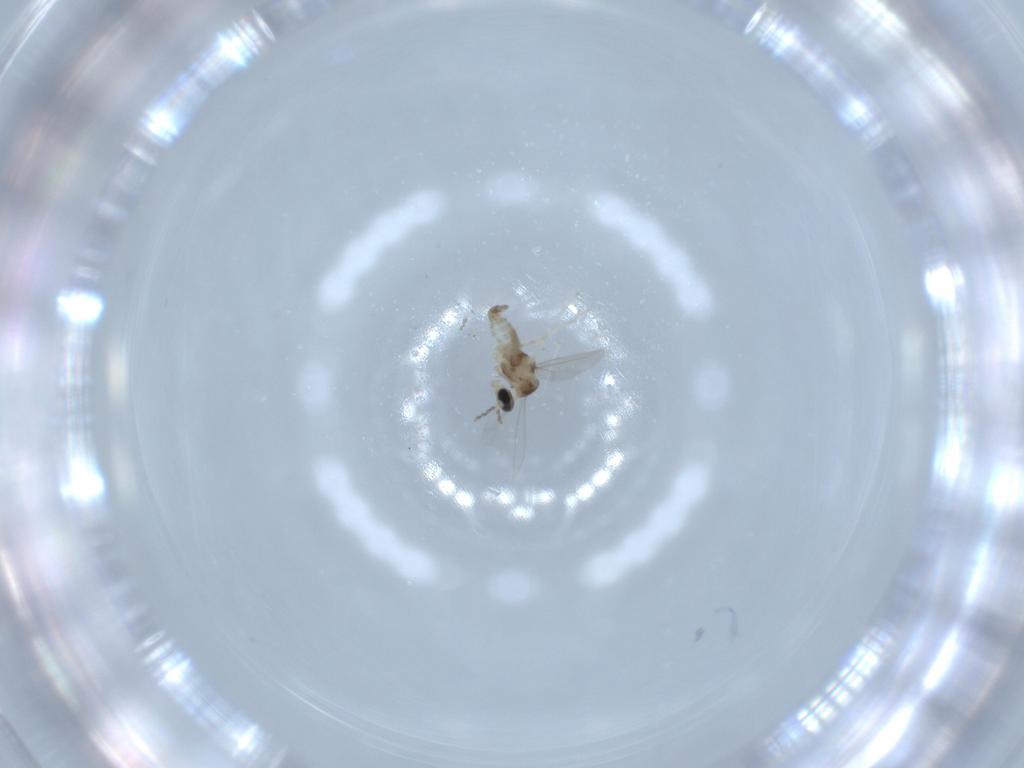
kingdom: Animalia
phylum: Arthropoda
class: Insecta
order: Diptera
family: Cecidomyiidae
